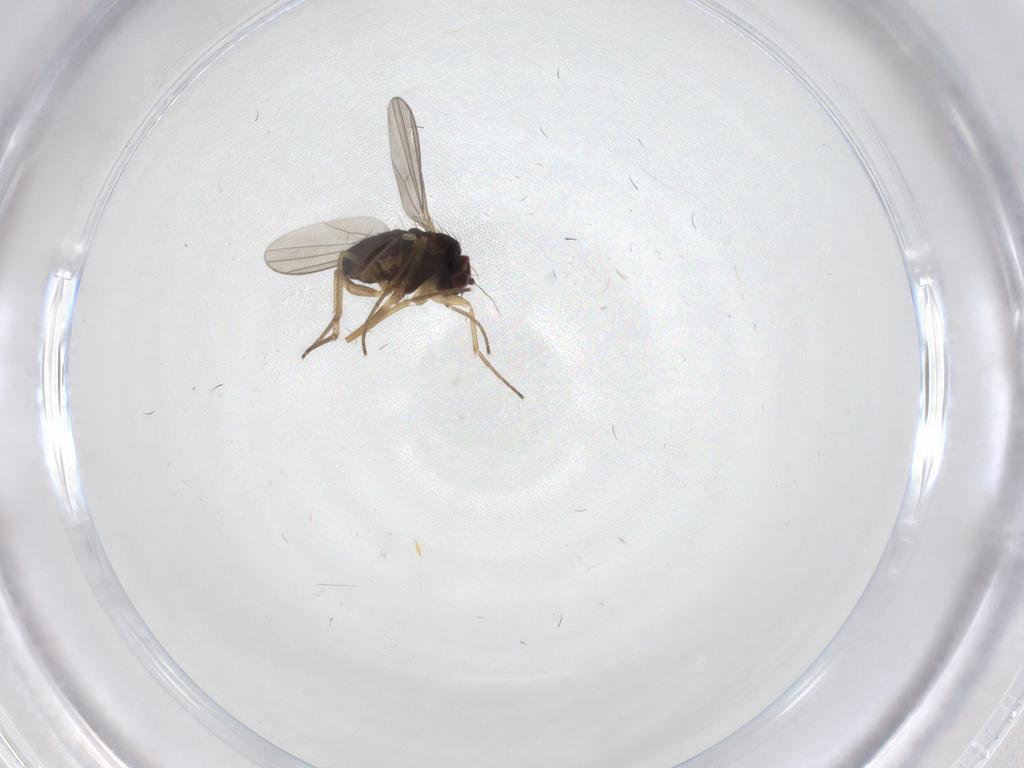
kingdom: Animalia
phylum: Arthropoda
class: Insecta
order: Diptera
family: Dolichopodidae
